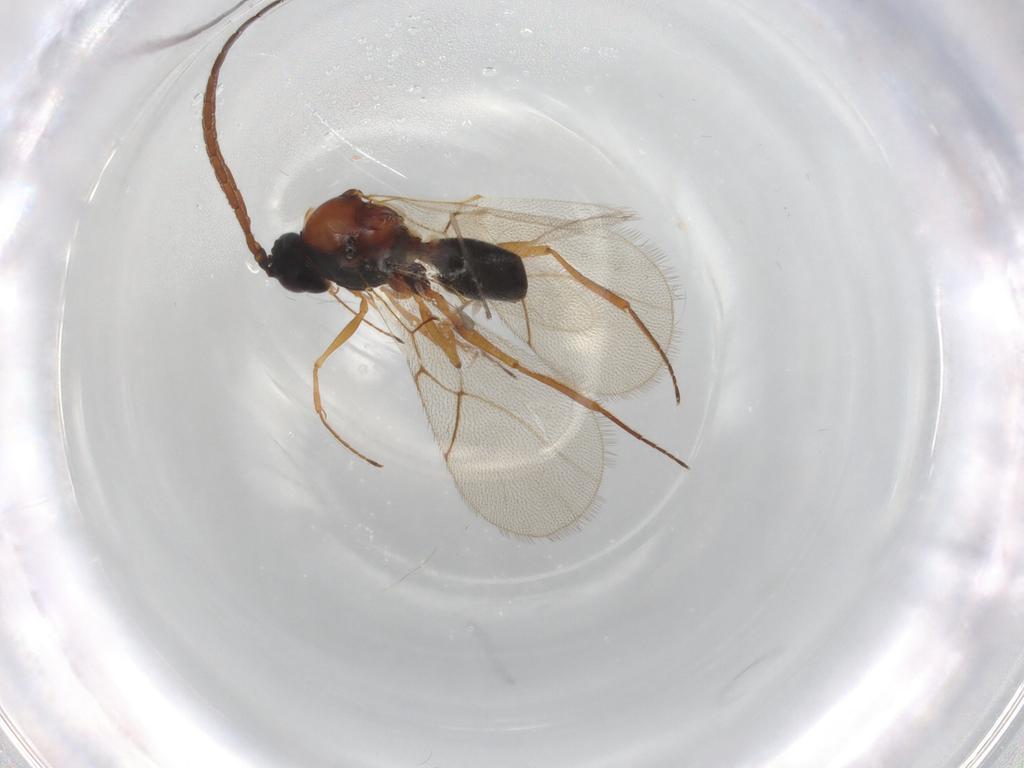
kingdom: Animalia
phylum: Arthropoda
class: Insecta
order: Hymenoptera
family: Figitidae
